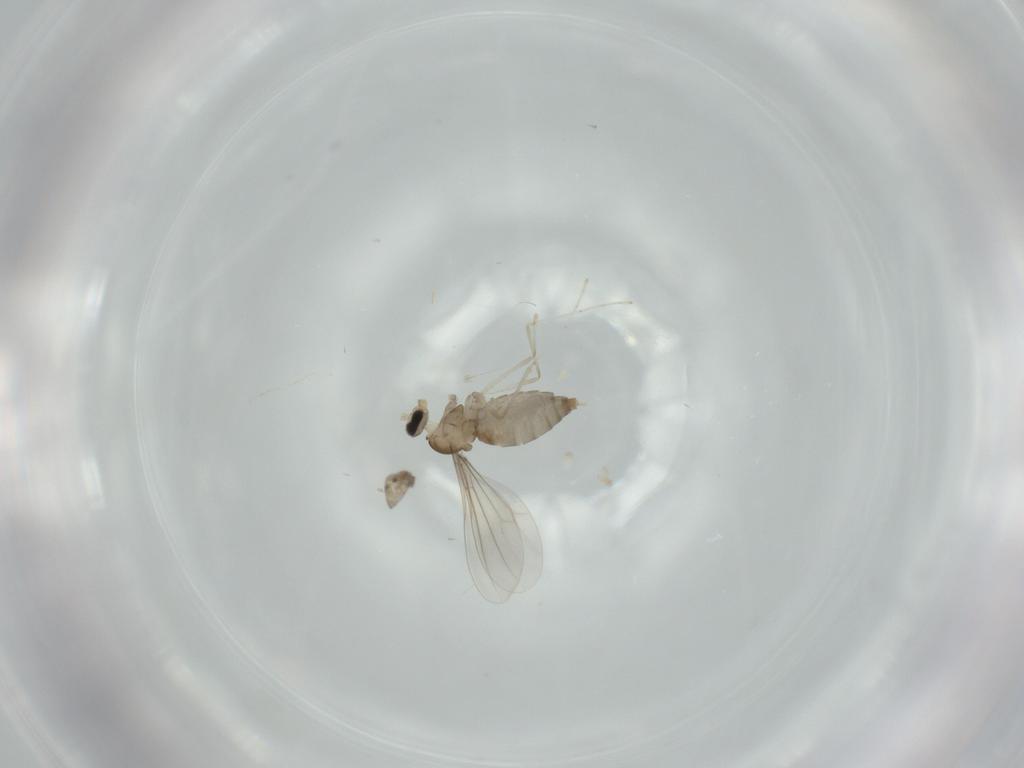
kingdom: Animalia
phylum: Arthropoda
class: Insecta
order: Diptera
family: Cecidomyiidae
